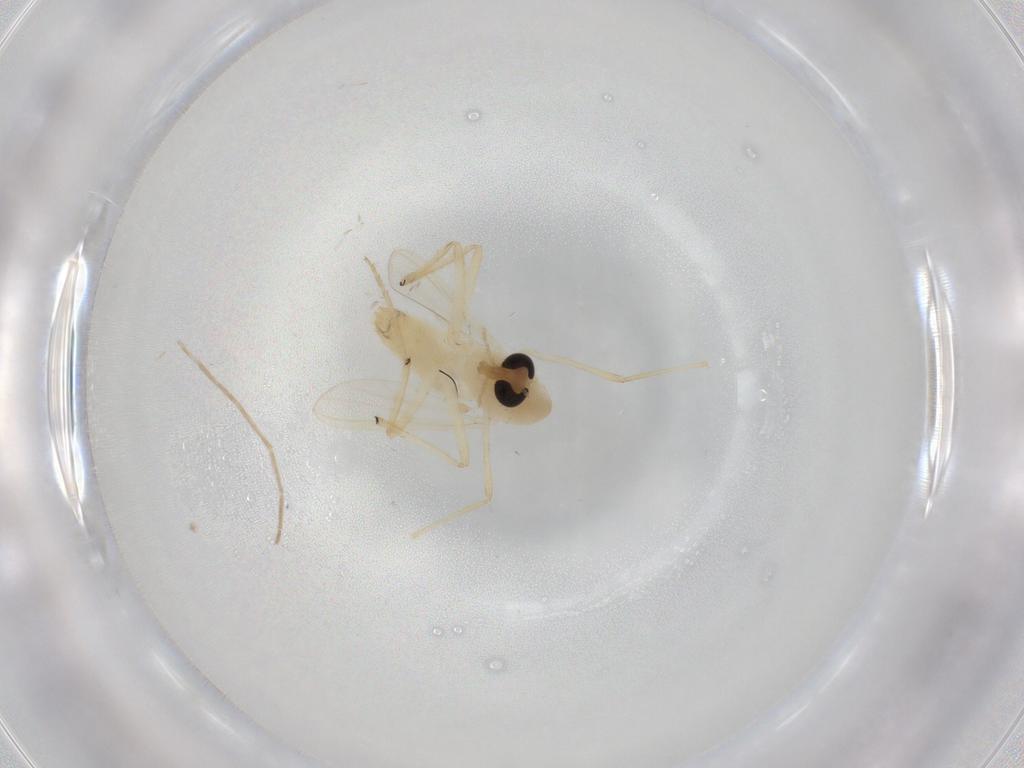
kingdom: Animalia
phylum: Arthropoda
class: Insecta
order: Diptera
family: Chironomidae
